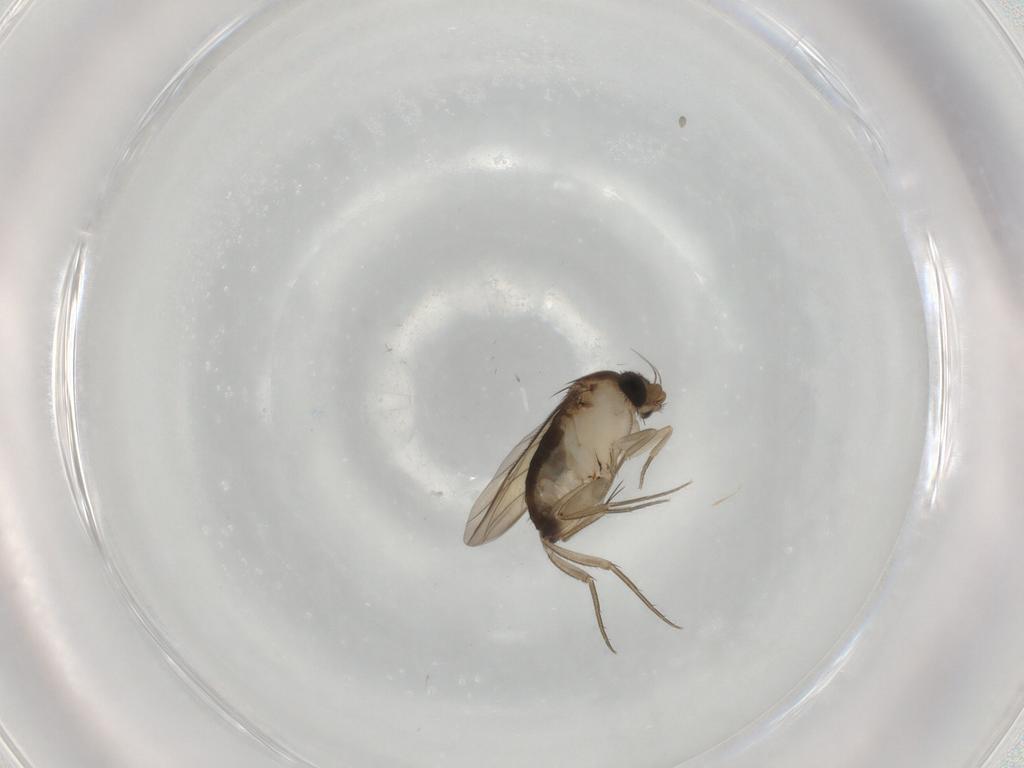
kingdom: Animalia
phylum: Arthropoda
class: Insecta
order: Diptera
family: Phoridae
